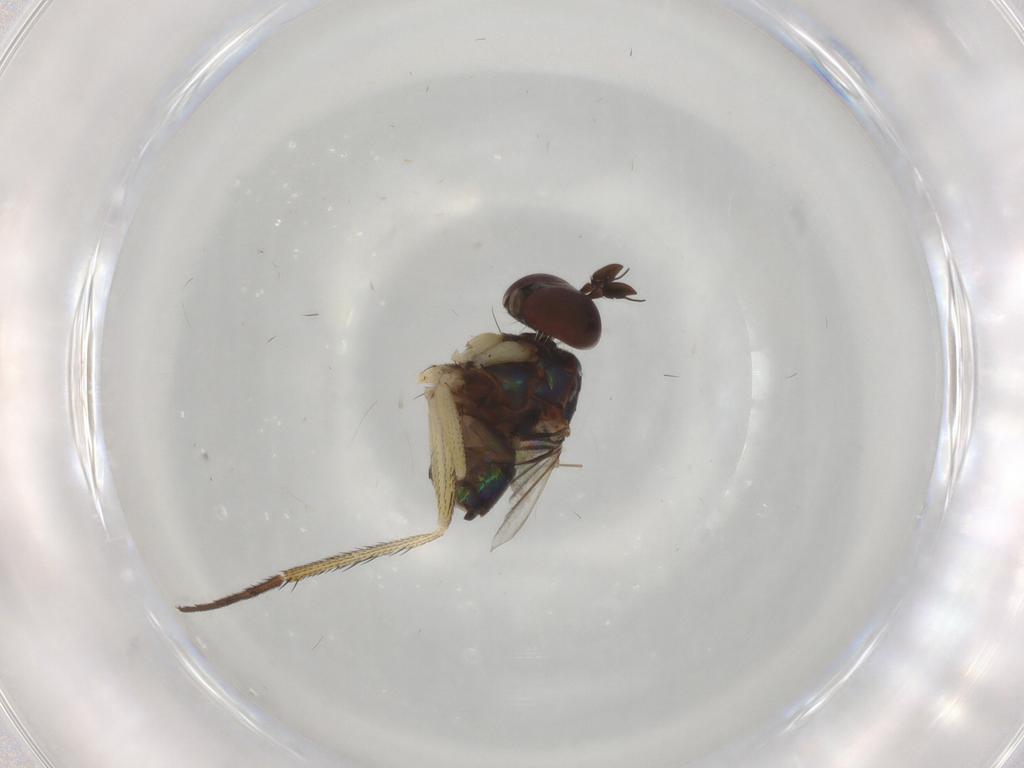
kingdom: Animalia
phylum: Arthropoda
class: Insecta
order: Diptera
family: Dolichopodidae
